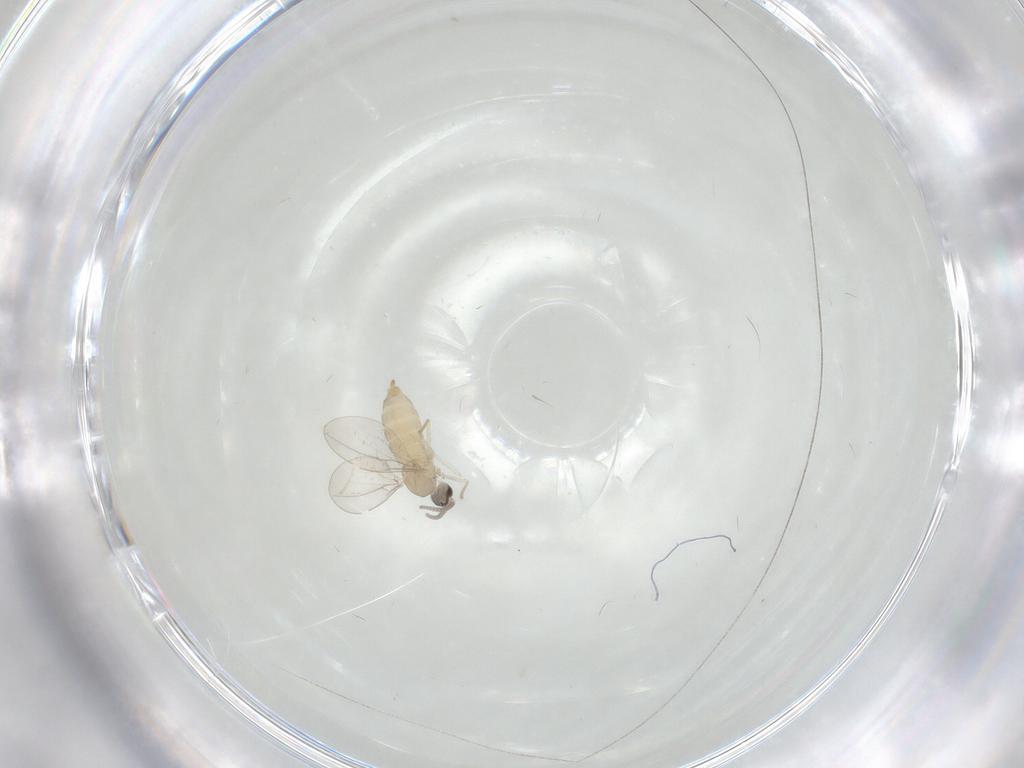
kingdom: Animalia
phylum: Arthropoda
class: Insecta
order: Diptera
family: Cecidomyiidae
